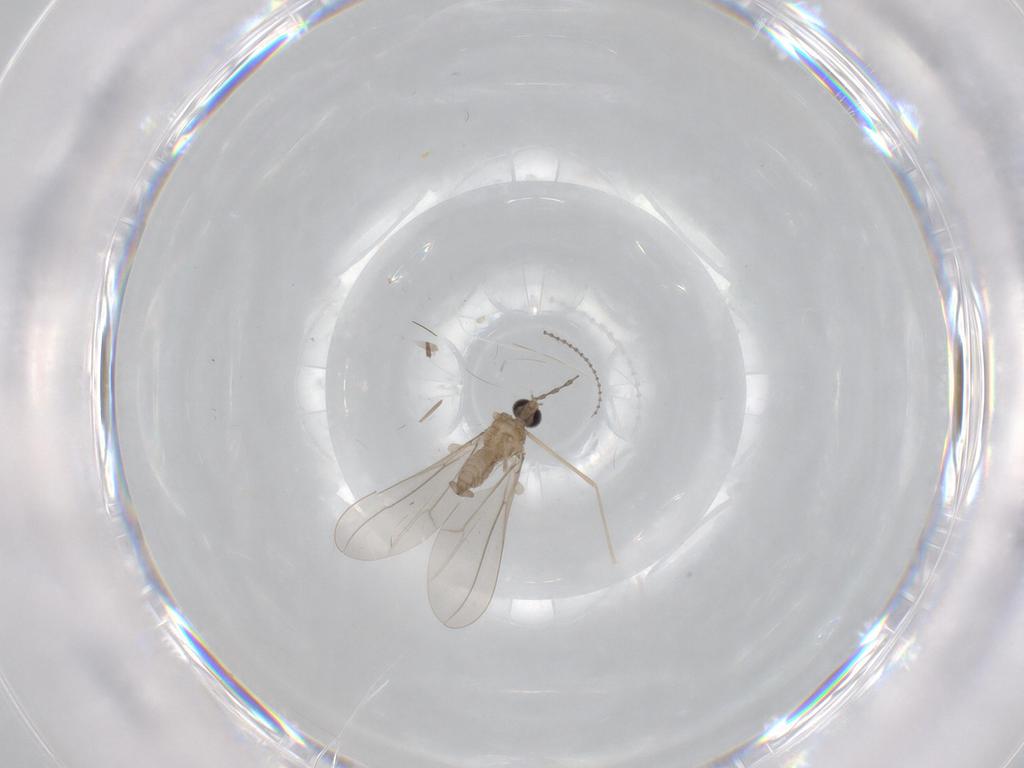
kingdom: Animalia
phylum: Arthropoda
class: Insecta
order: Diptera
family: Cecidomyiidae
